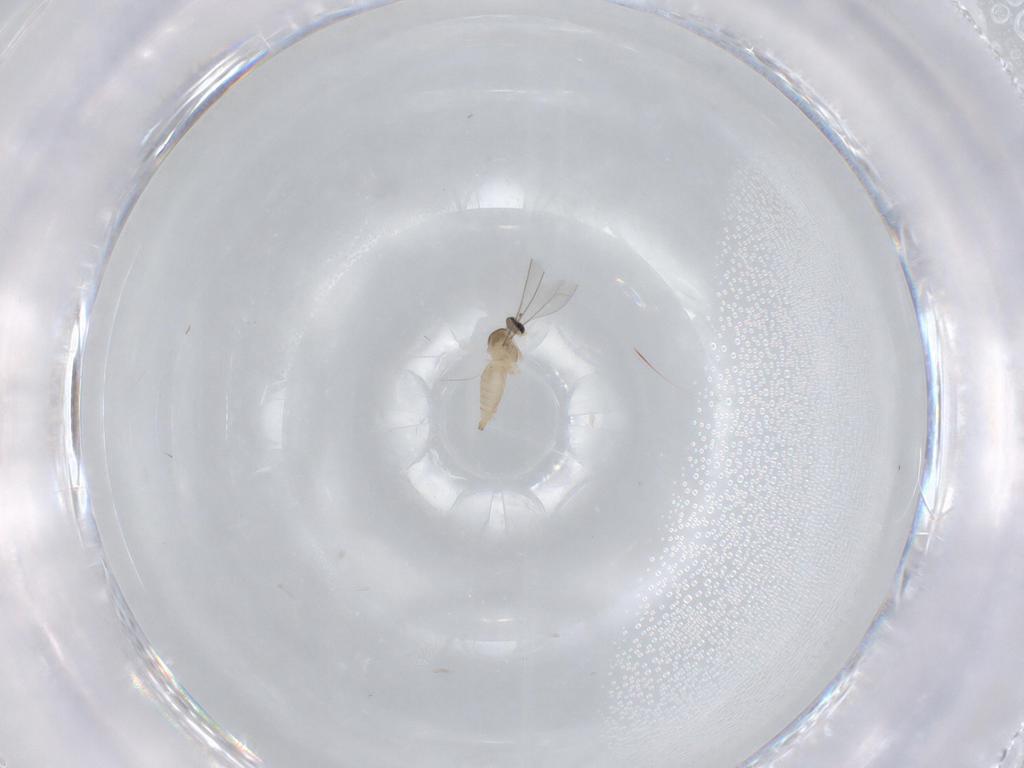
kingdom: Animalia
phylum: Arthropoda
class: Insecta
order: Diptera
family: Cecidomyiidae
